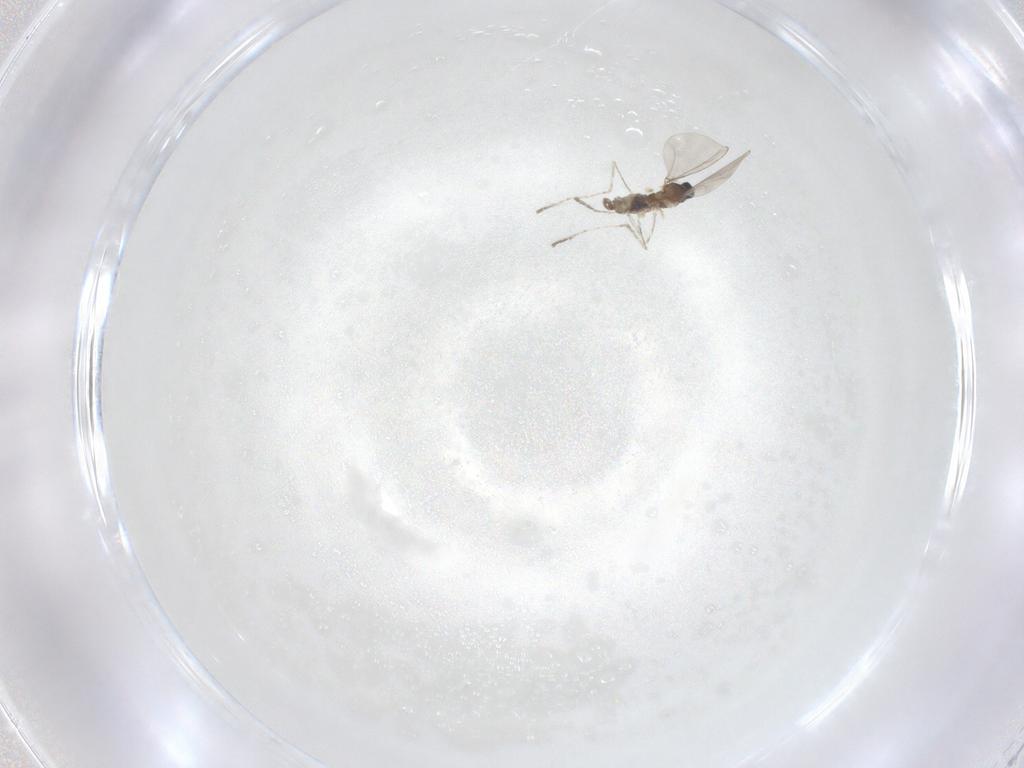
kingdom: Animalia
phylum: Arthropoda
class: Insecta
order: Diptera
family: Cecidomyiidae
